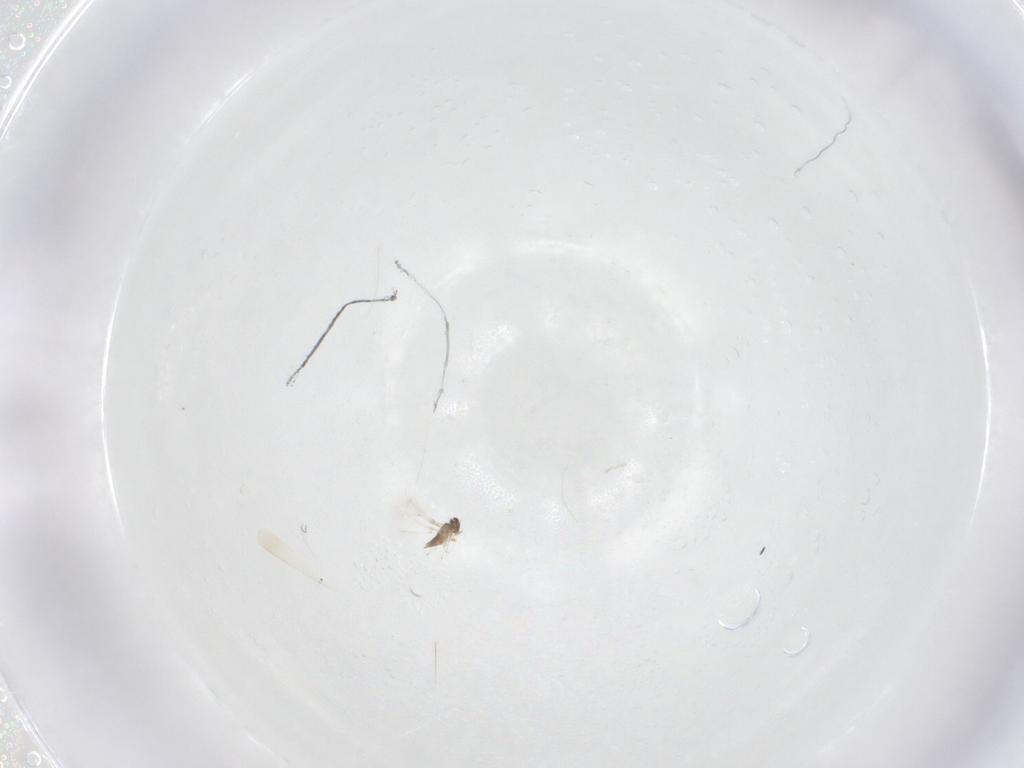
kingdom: Animalia
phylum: Arthropoda
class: Insecta
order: Hymenoptera
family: Mymaridae
